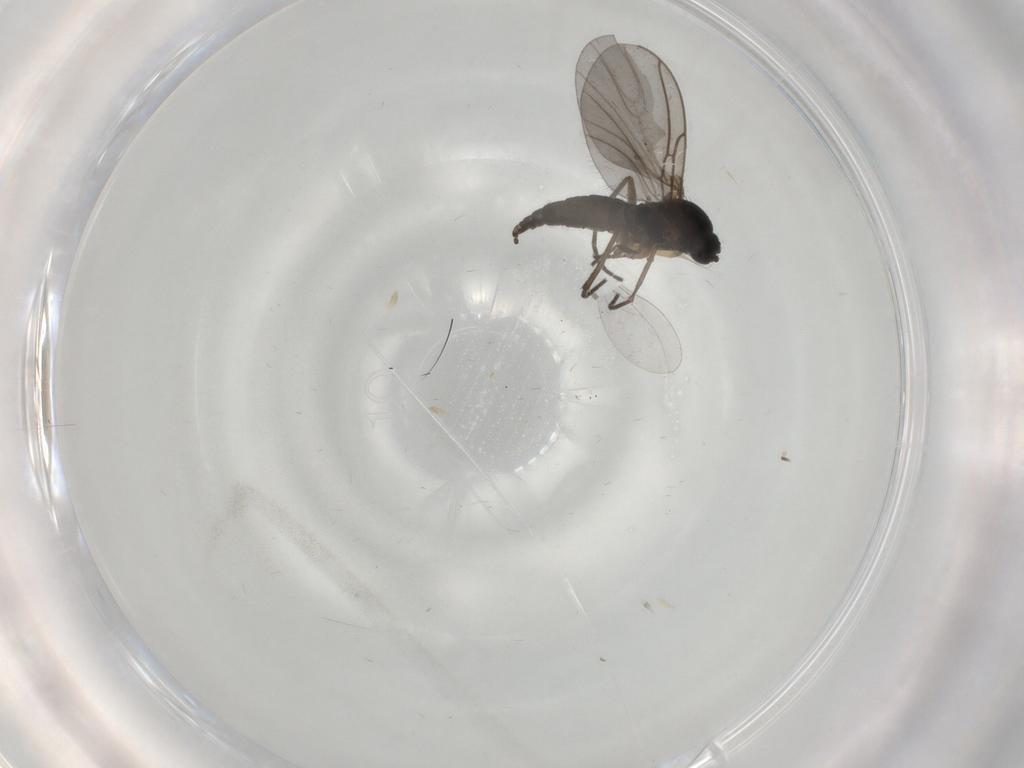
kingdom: Animalia
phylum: Arthropoda
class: Insecta
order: Diptera
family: Sciaridae
